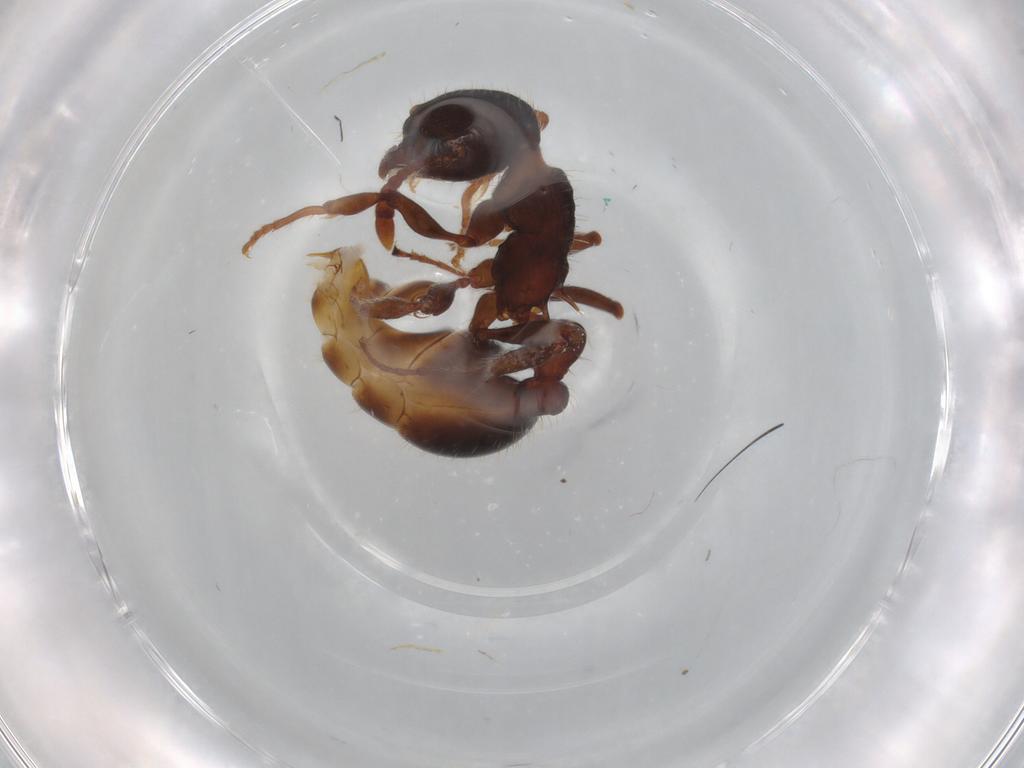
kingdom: Animalia
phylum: Arthropoda
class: Insecta
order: Hymenoptera
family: Formicidae
